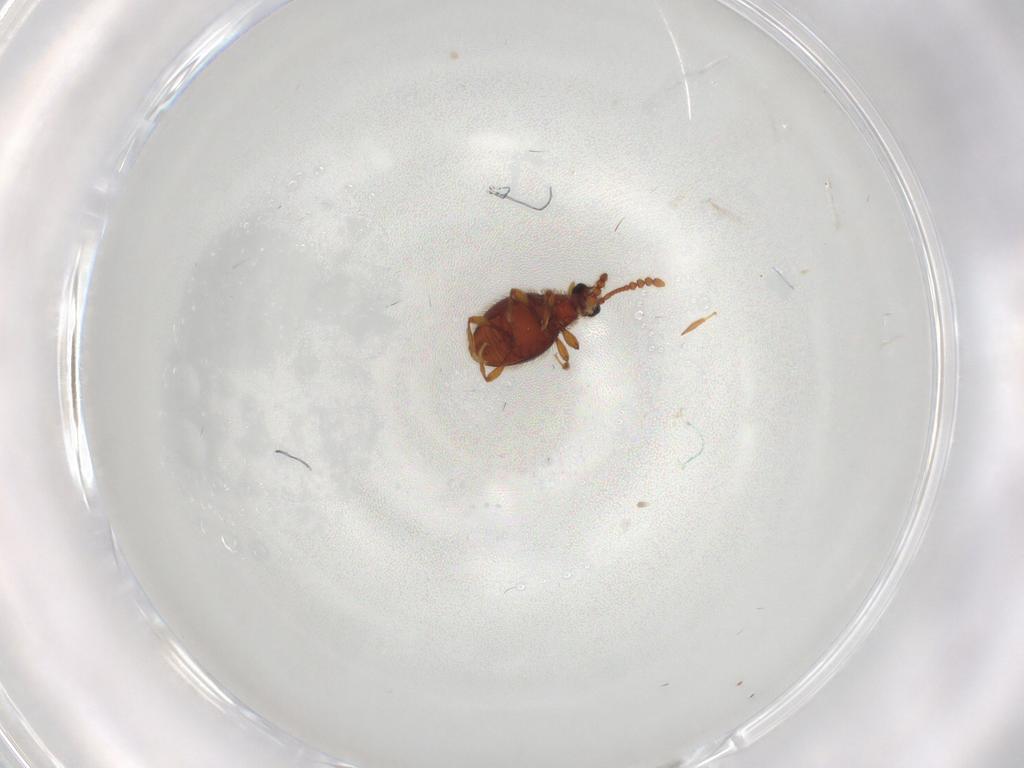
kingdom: Animalia
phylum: Arthropoda
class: Insecta
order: Coleoptera
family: Staphylinidae
